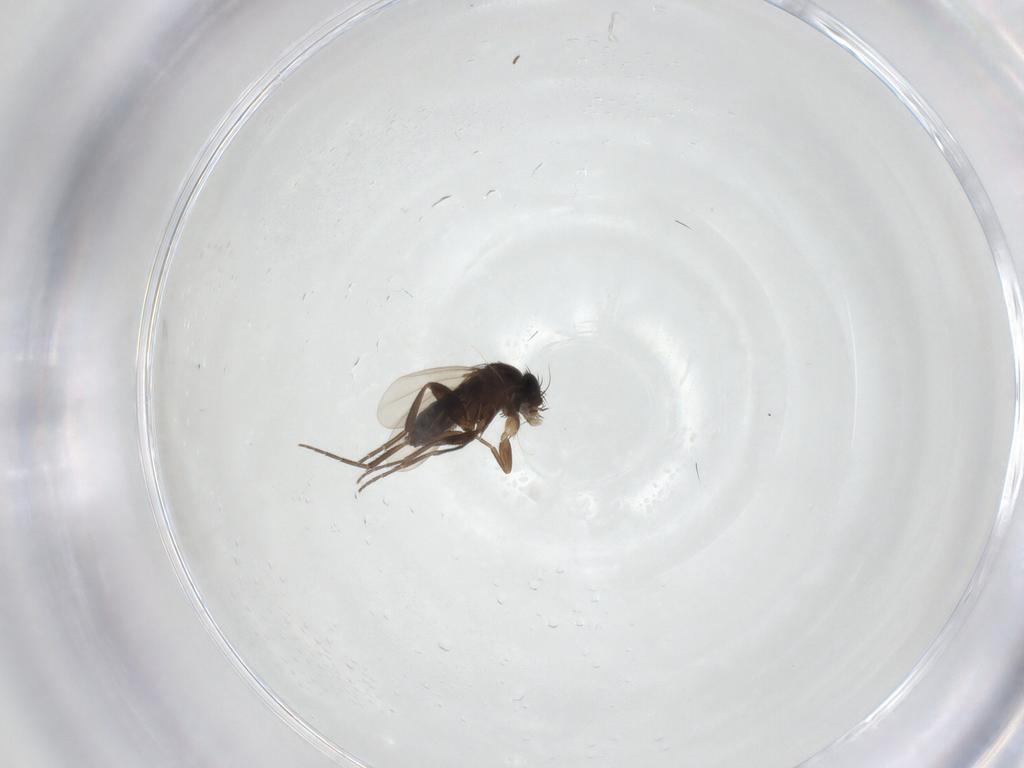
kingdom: Animalia
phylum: Arthropoda
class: Insecta
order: Diptera
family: Phoridae
